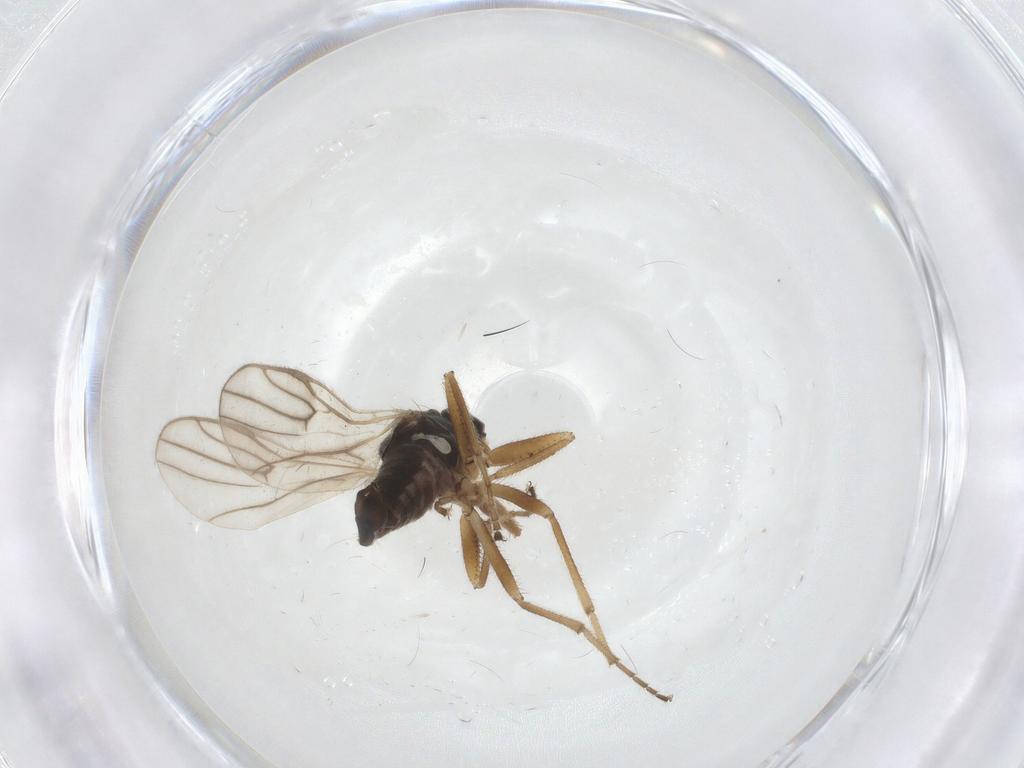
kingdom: Animalia
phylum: Arthropoda
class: Insecta
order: Diptera
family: Hybotidae
